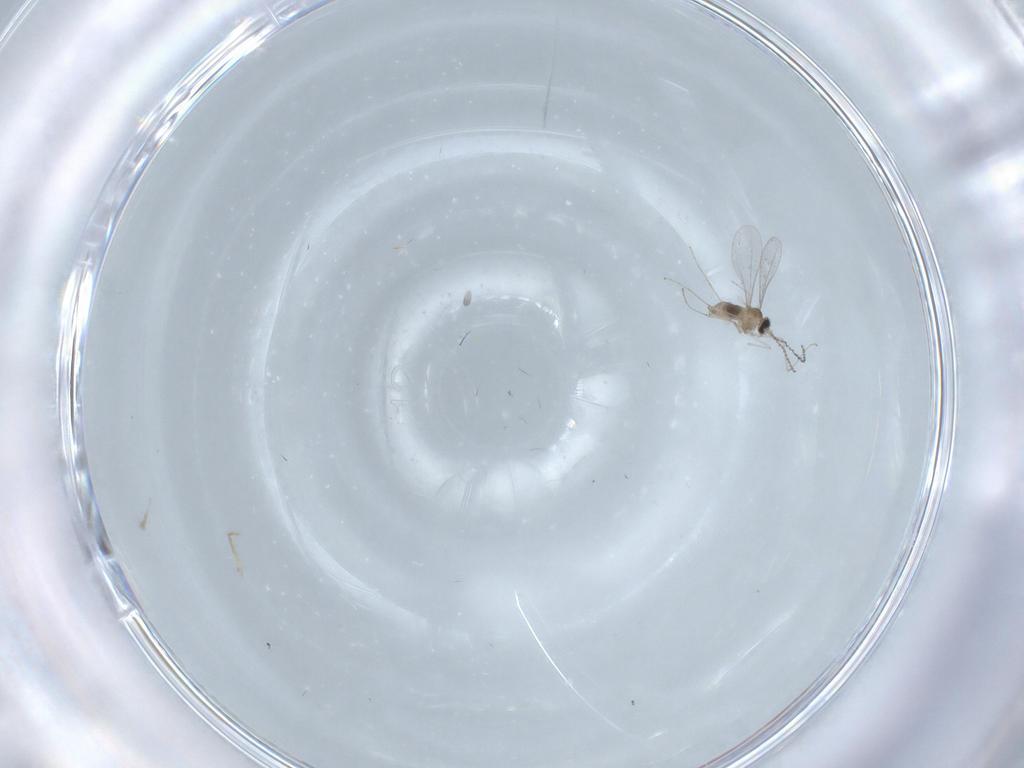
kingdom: Animalia
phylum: Arthropoda
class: Insecta
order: Diptera
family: Cecidomyiidae
